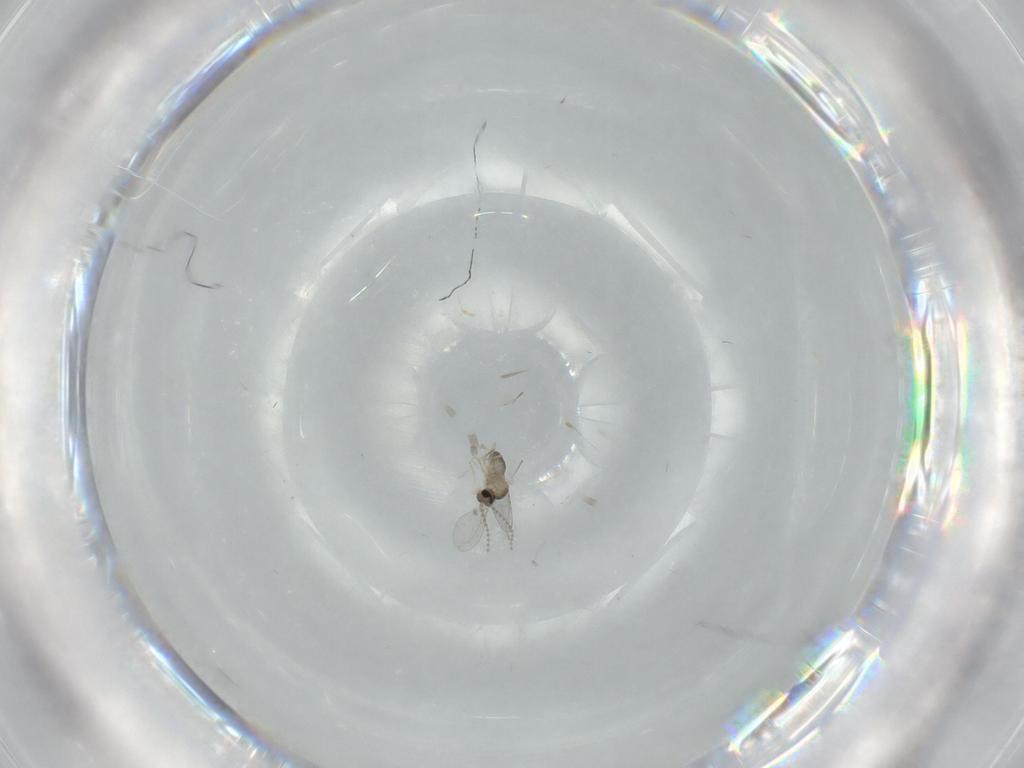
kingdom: Animalia
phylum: Arthropoda
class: Insecta
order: Diptera
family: Cecidomyiidae
